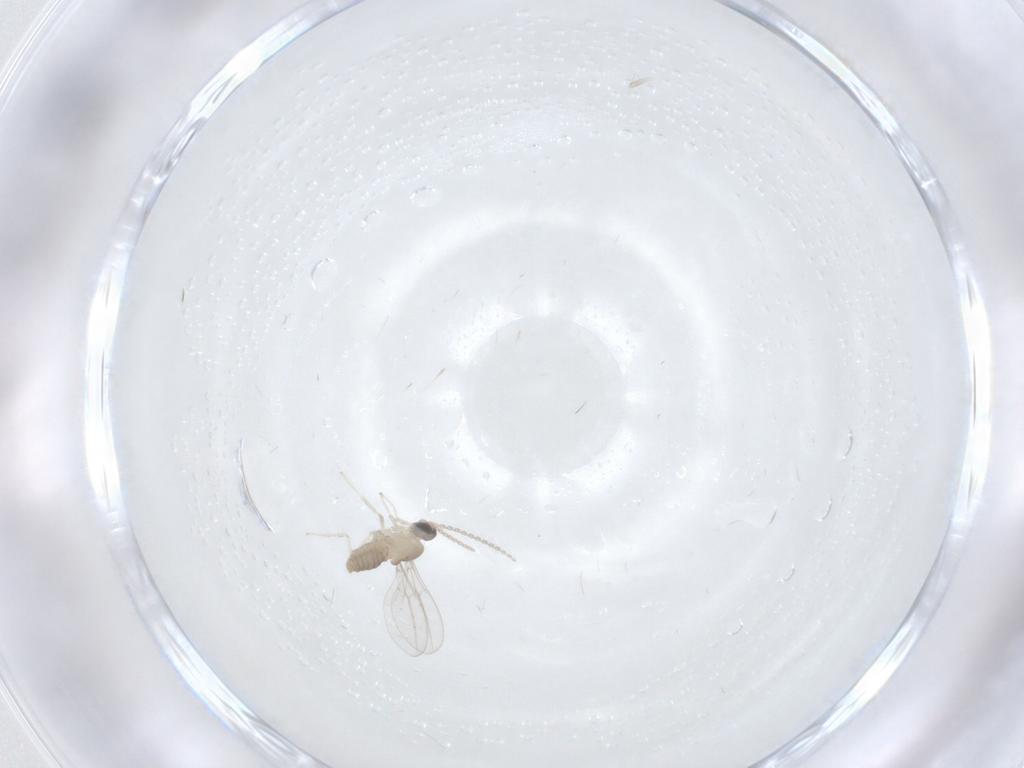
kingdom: Animalia
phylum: Arthropoda
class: Insecta
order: Diptera
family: Cecidomyiidae
